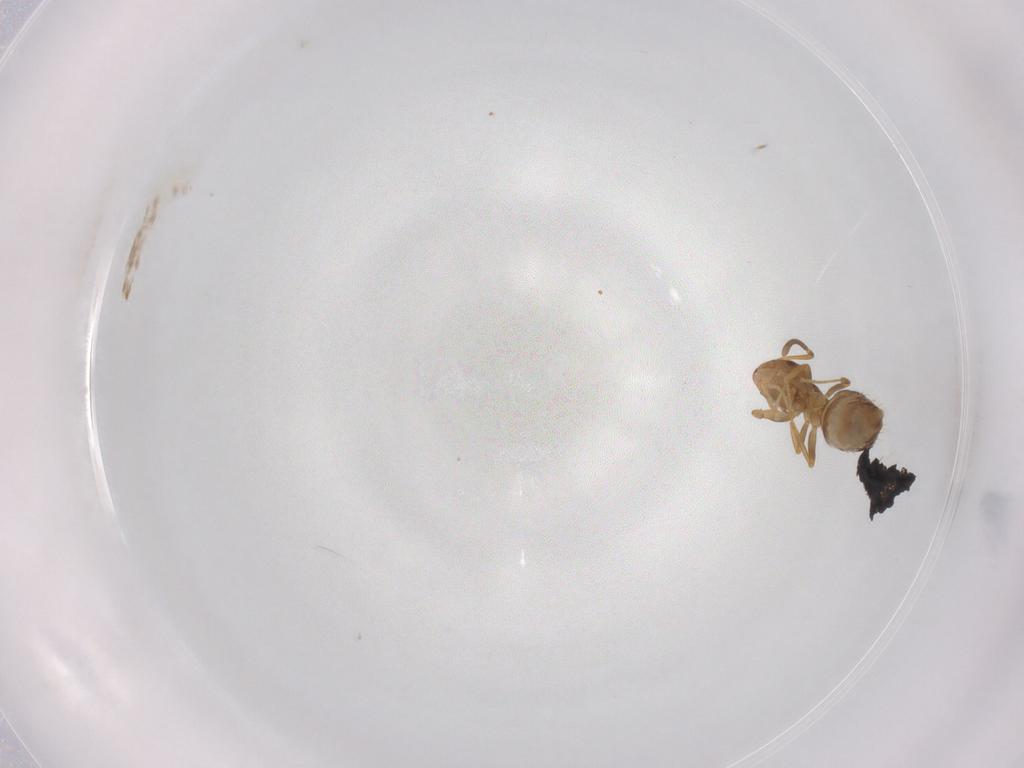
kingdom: Animalia
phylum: Arthropoda
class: Insecta
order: Hymenoptera
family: Formicidae
